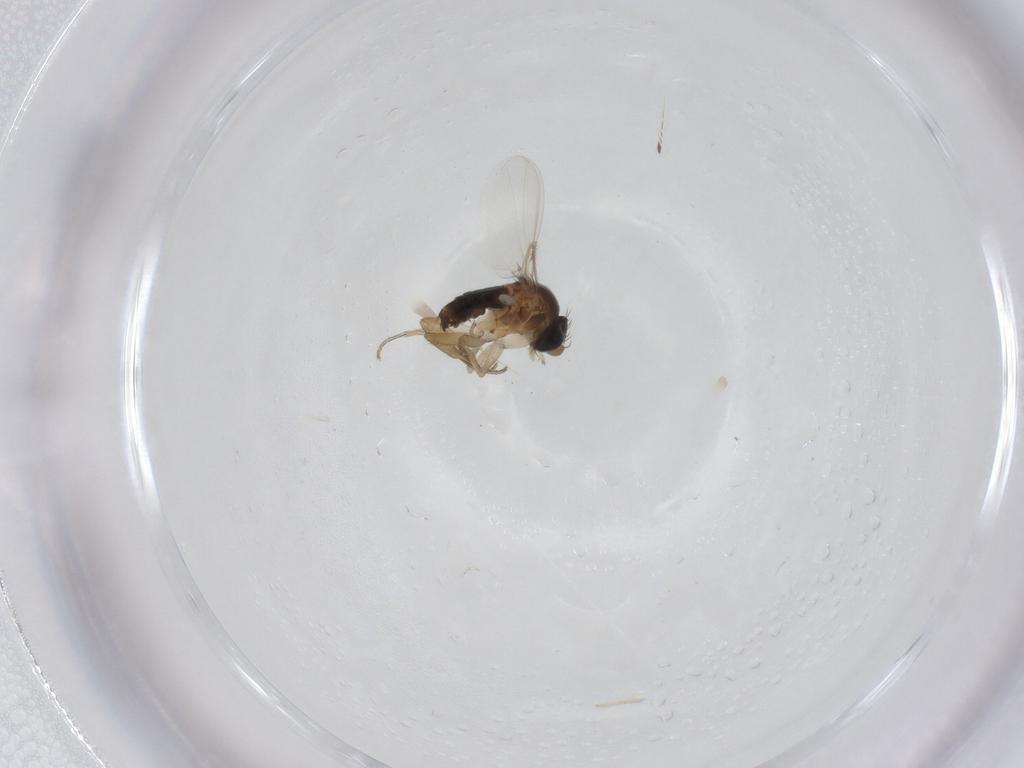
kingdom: Animalia
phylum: Arthropoda
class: Insecta
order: Diptera
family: Phoridae
